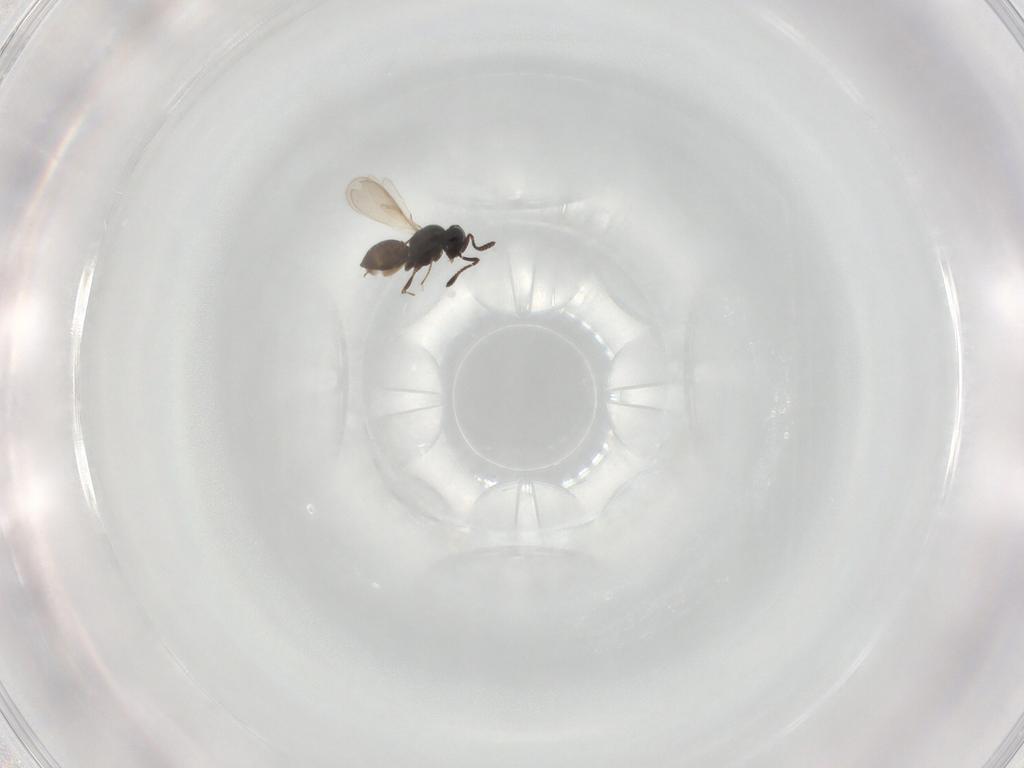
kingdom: Animalia
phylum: Arthropoda
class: Insecta
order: Hymenoptera
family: Scelionidae
